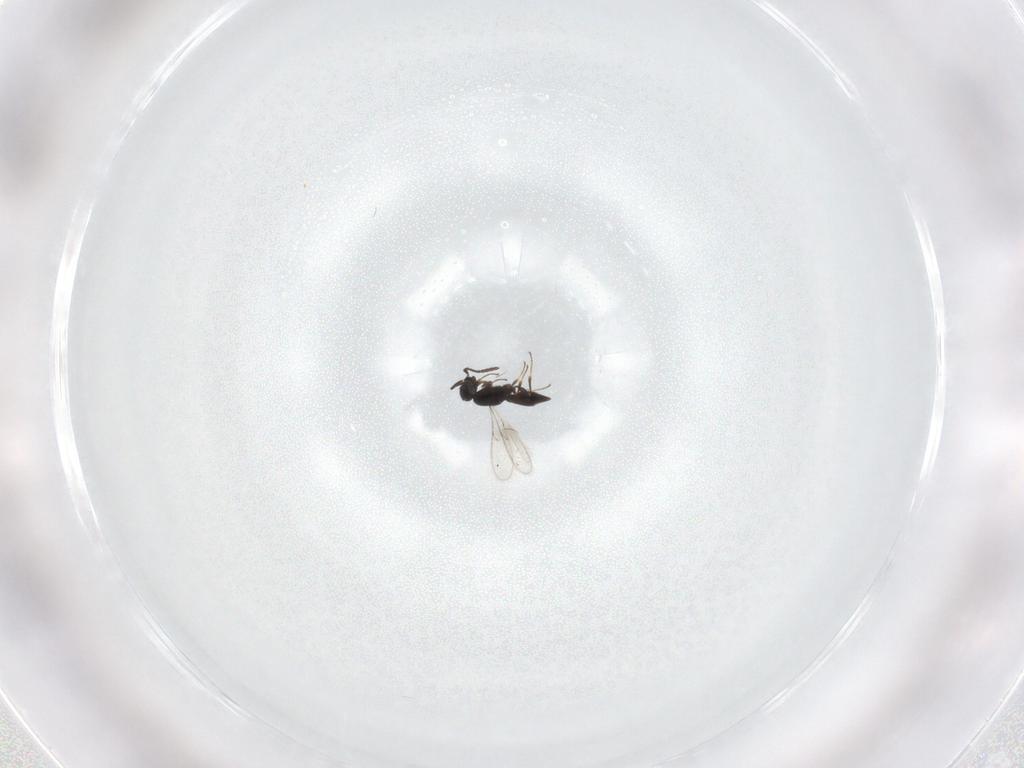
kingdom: Animalia
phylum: Arthropoda
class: Insecta
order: Hymenoptera
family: Scelionidae
